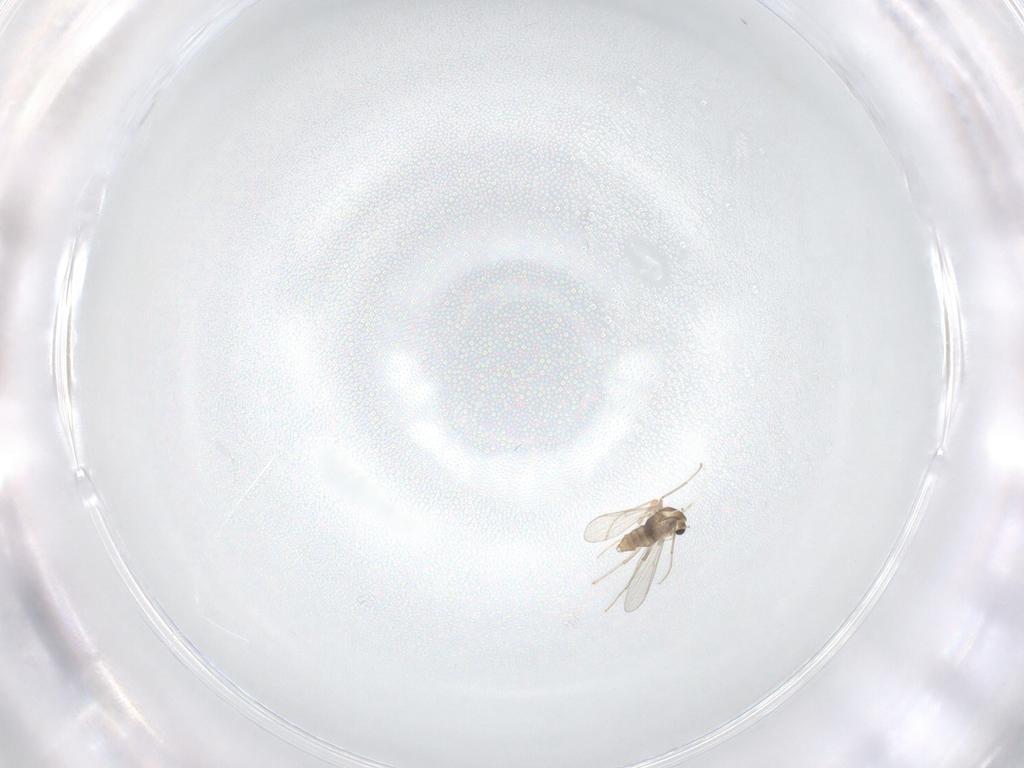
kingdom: Animalia
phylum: Arthropoda
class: Insecta
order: Diptera
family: Chironomidae
